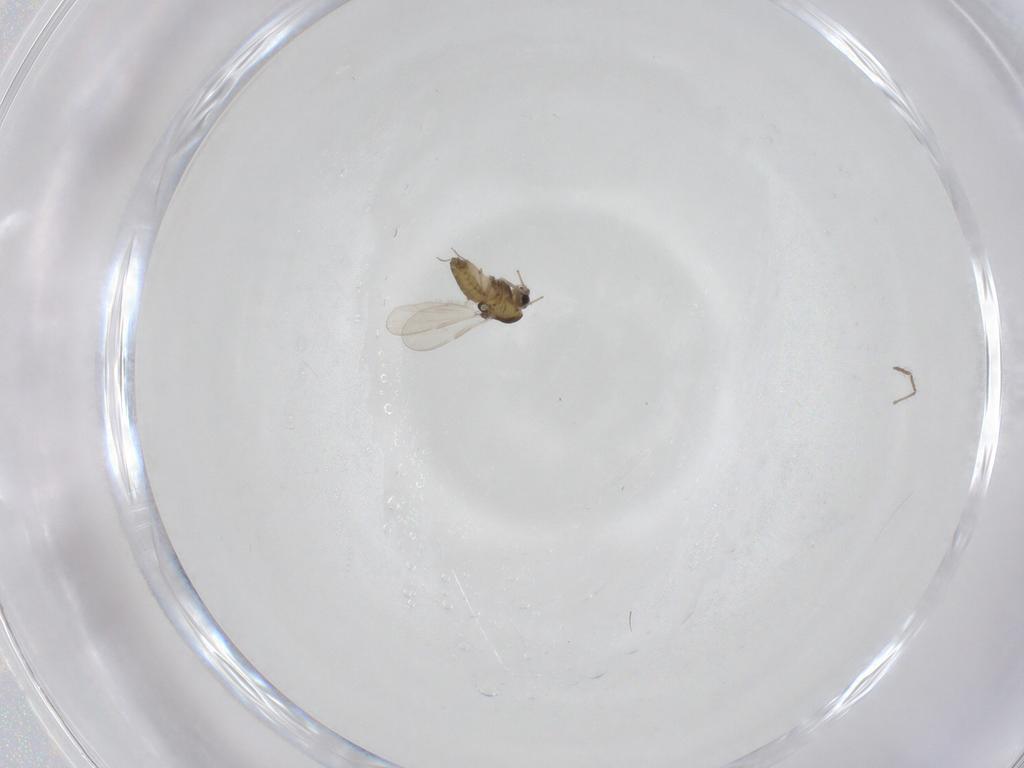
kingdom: Animalia
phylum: Arthropoda
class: Insecta
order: Diptera
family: Chironomidae
